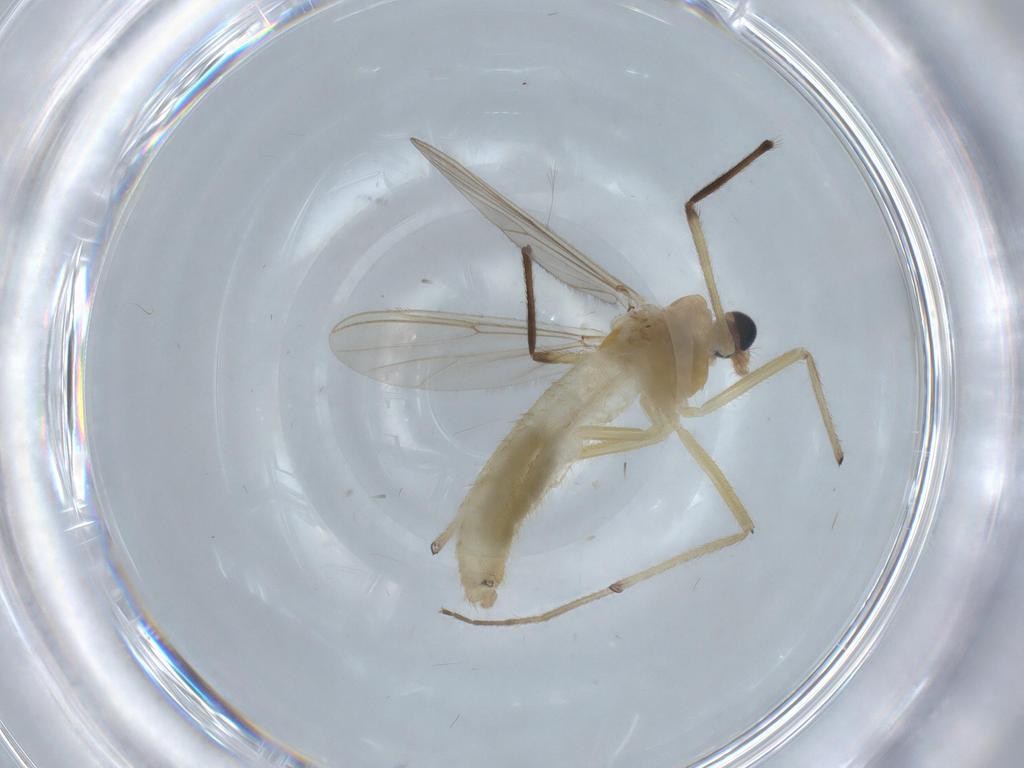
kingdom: Animalia
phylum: Arthropoda
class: Insecta
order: Diptera
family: Chironomidae
